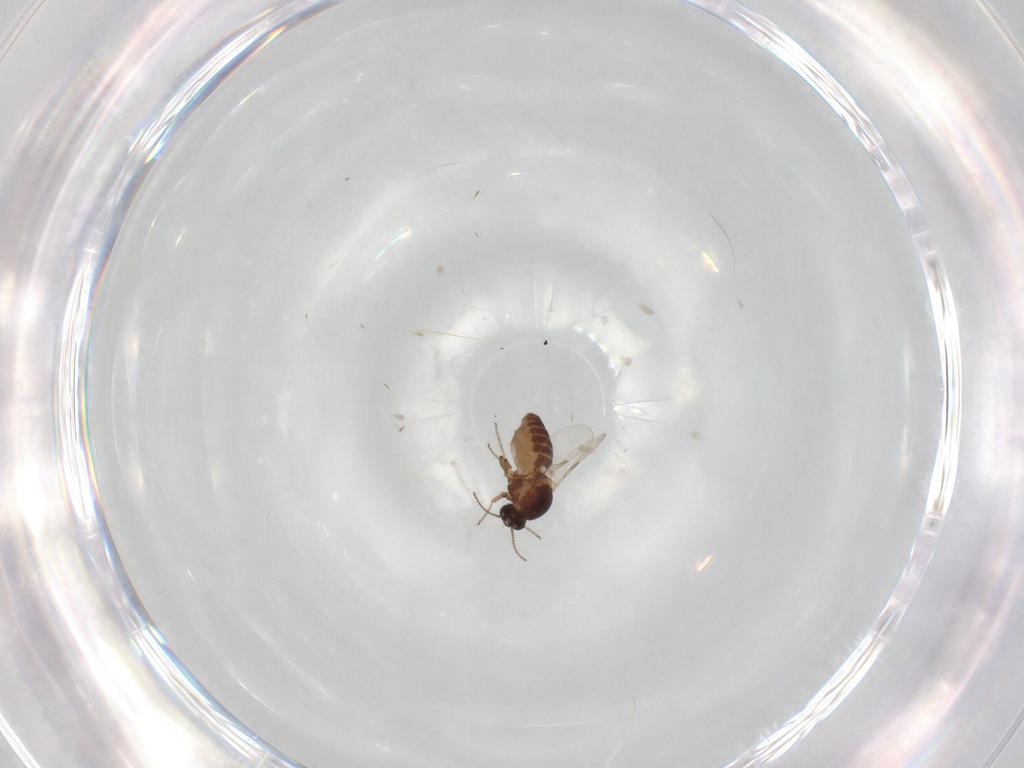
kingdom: Animalia
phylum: Arthropoda
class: Insecta
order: Diptera
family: Ceratopogonidae
